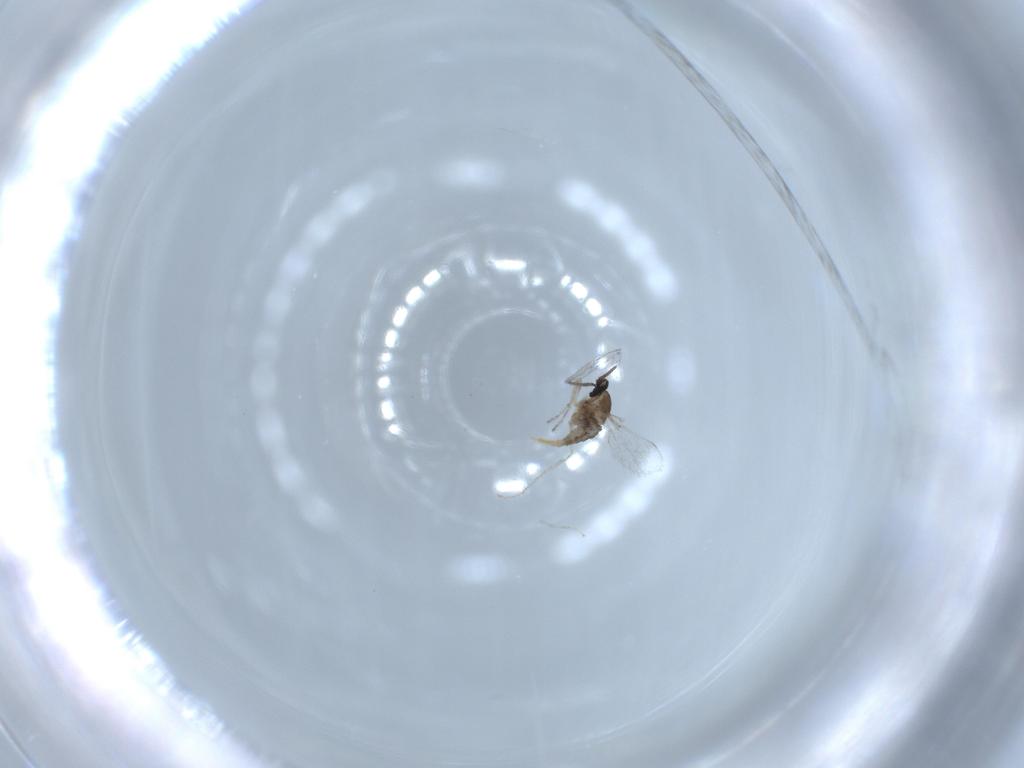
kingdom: Animalia
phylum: Arthropoda
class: Insecta
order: Diptera
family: Cecidomyiidae
